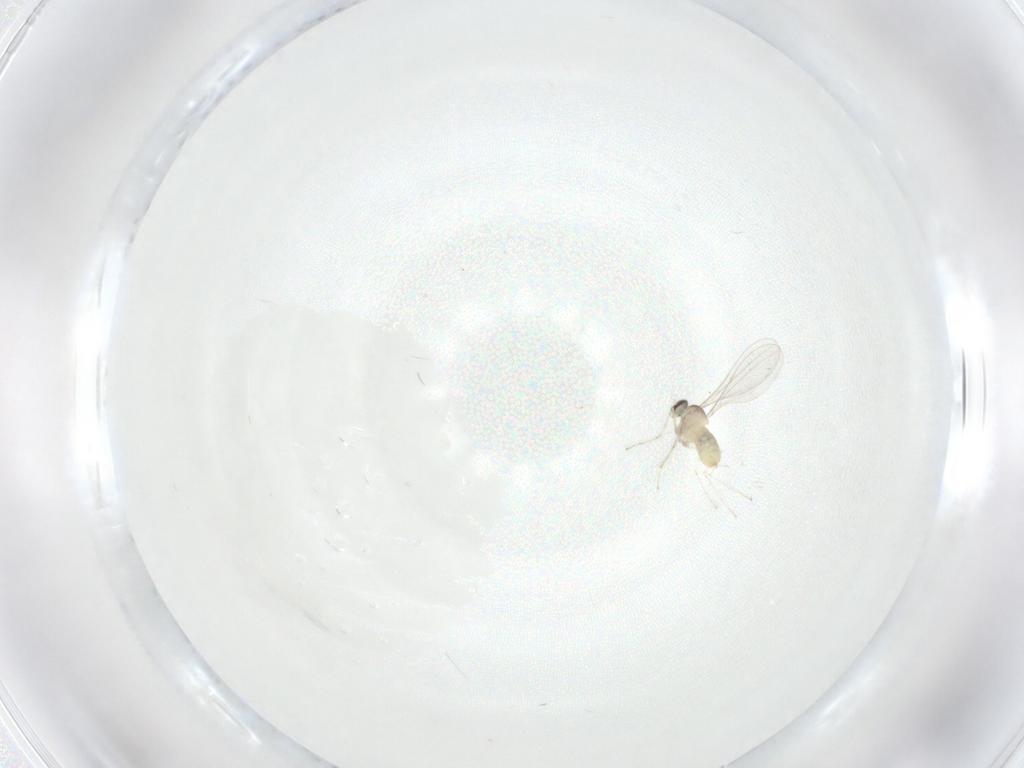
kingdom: Animalia
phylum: Arthropoda
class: Insecta
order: Diptera
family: Cecidomyiidae
